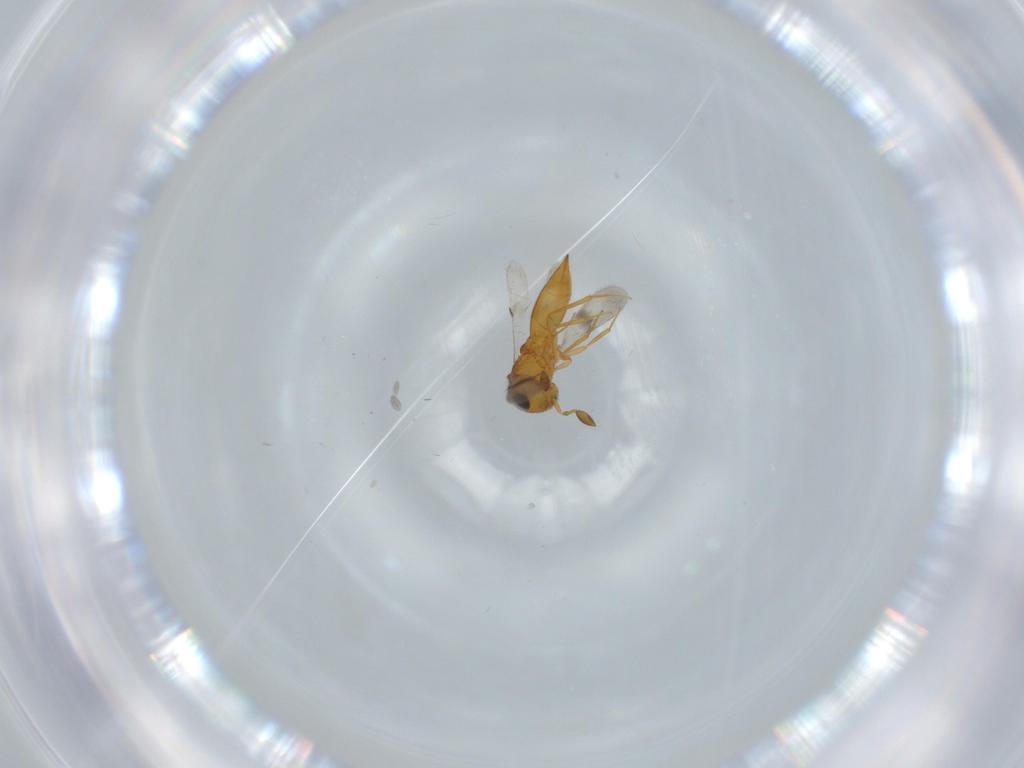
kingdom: Animalia
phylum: Arthropoda
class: Insecta
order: Hymenoptera
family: Scelionidae
